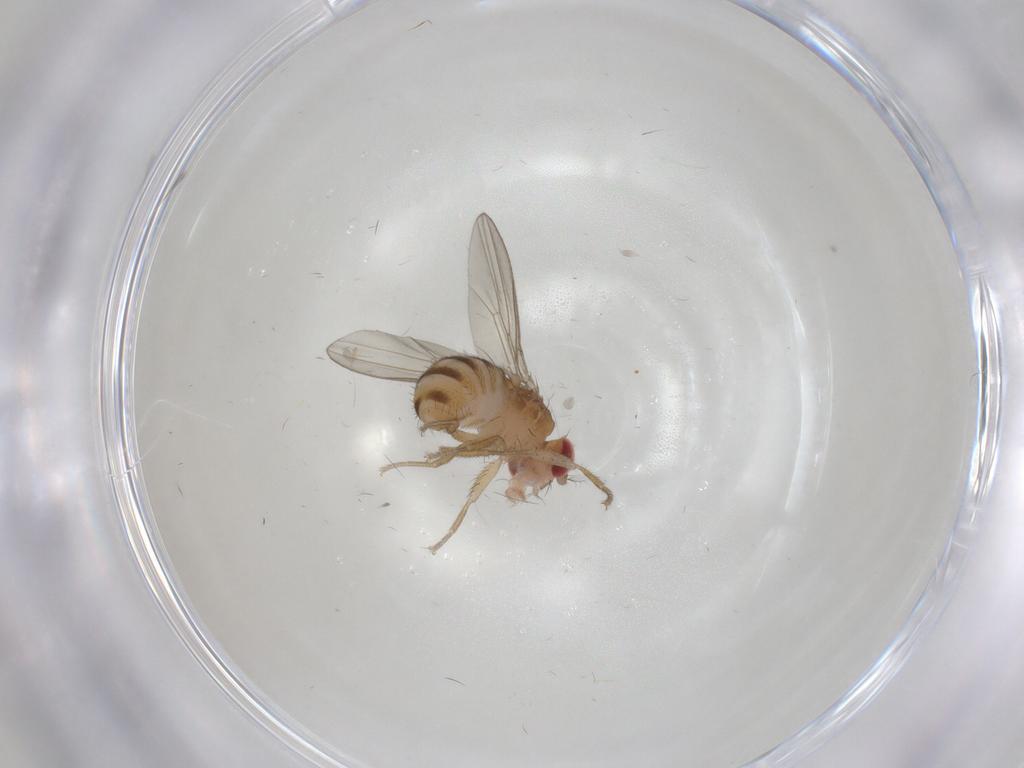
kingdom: Animalia
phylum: Arthropoda
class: Insecta
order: Diptera
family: Drosophilidae
